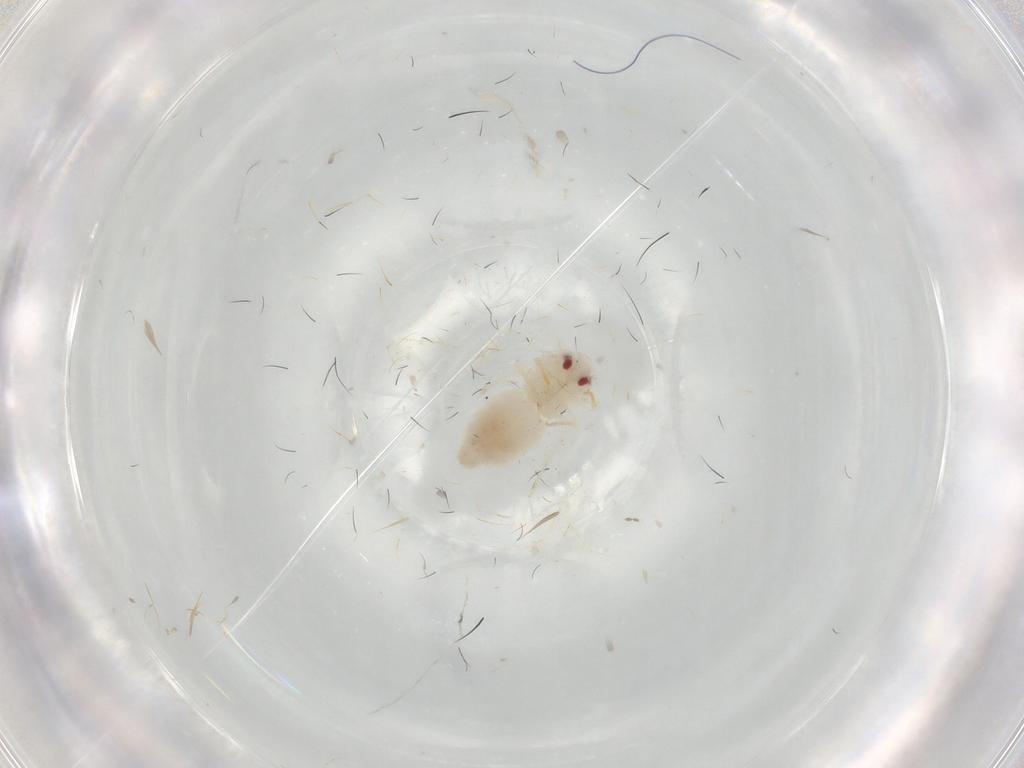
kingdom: Animalia
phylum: Arthropoda
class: Insecta
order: Hemiptera
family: Aleyrodidae
